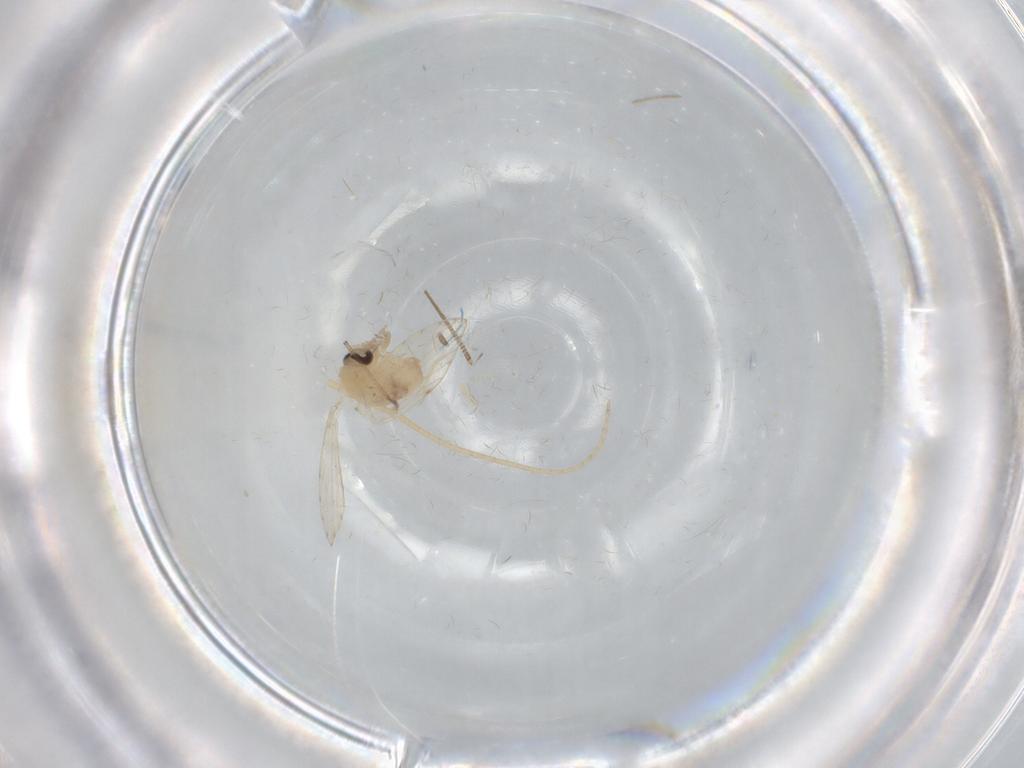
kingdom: Animalia
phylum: Arthropoda
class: Insecta
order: Diptera
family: Psychodidae
